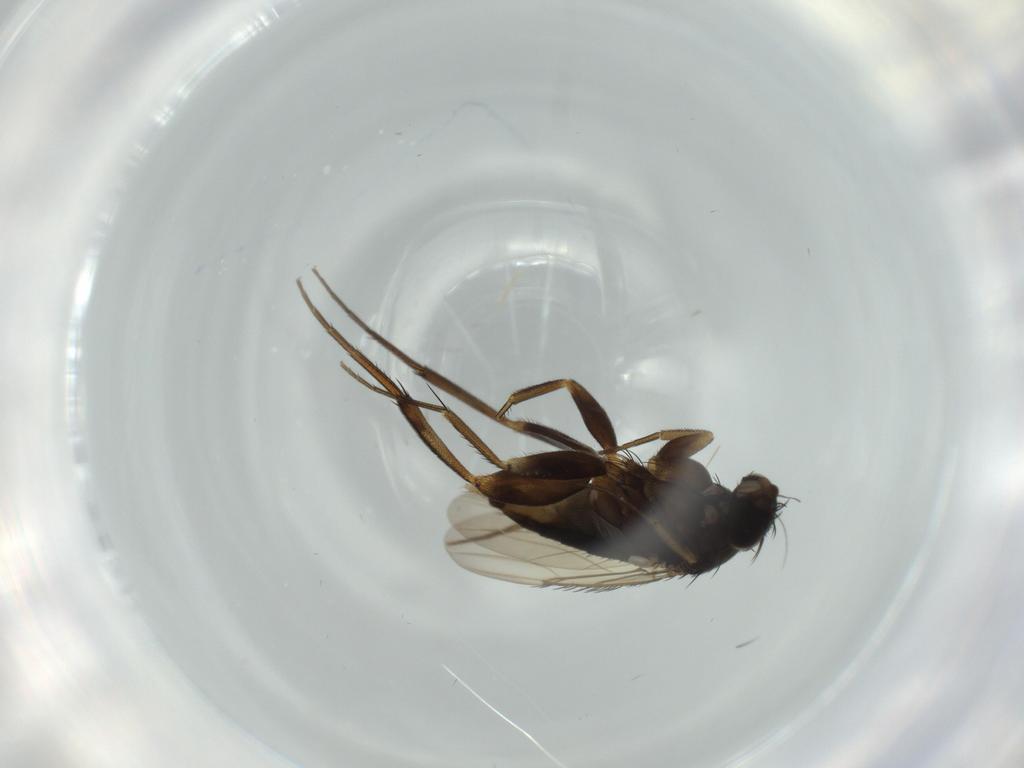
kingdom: Animalia
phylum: Arthropoda
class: Insecta
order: Diptera
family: Phoridae
